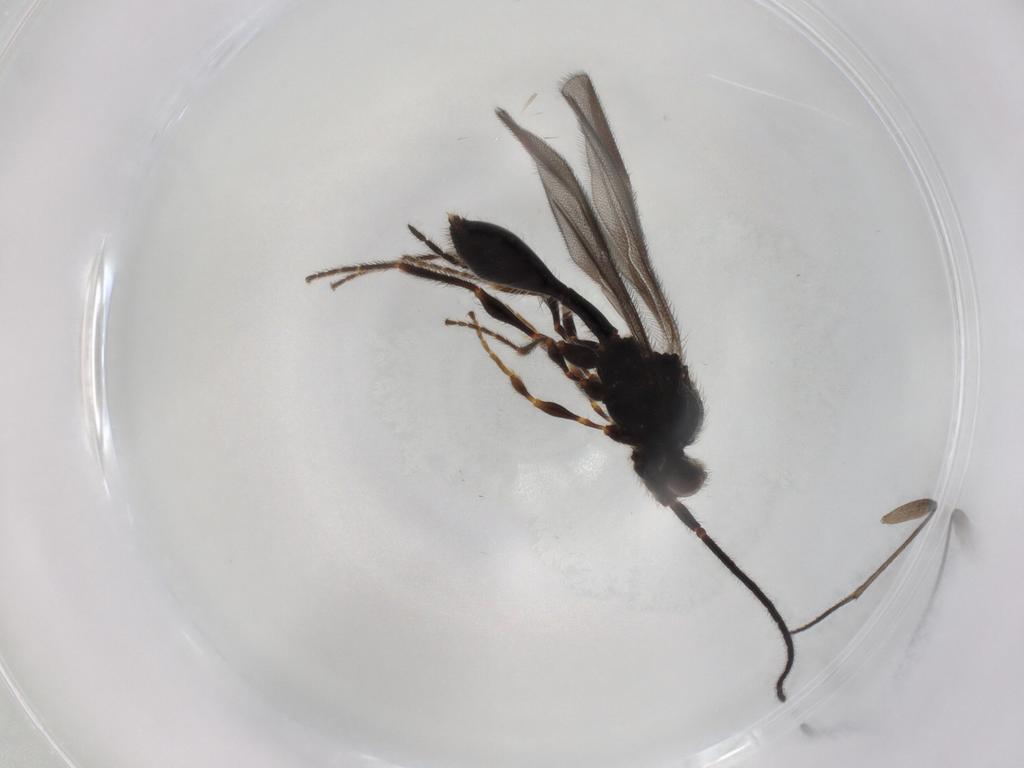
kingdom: Animalia
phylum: Arthropoda
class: Insecta
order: Hymenoptera
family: Diapriidae
